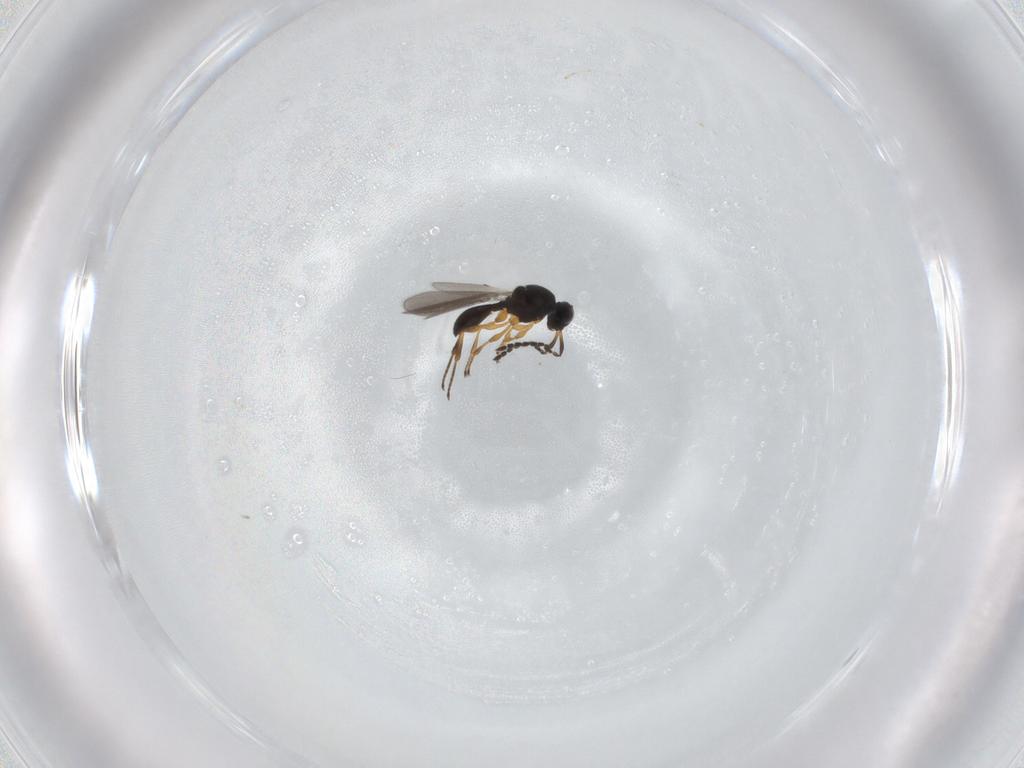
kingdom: Animalia
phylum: Arthropoda
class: Insecta
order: Hymenoptera
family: Platygastridae
